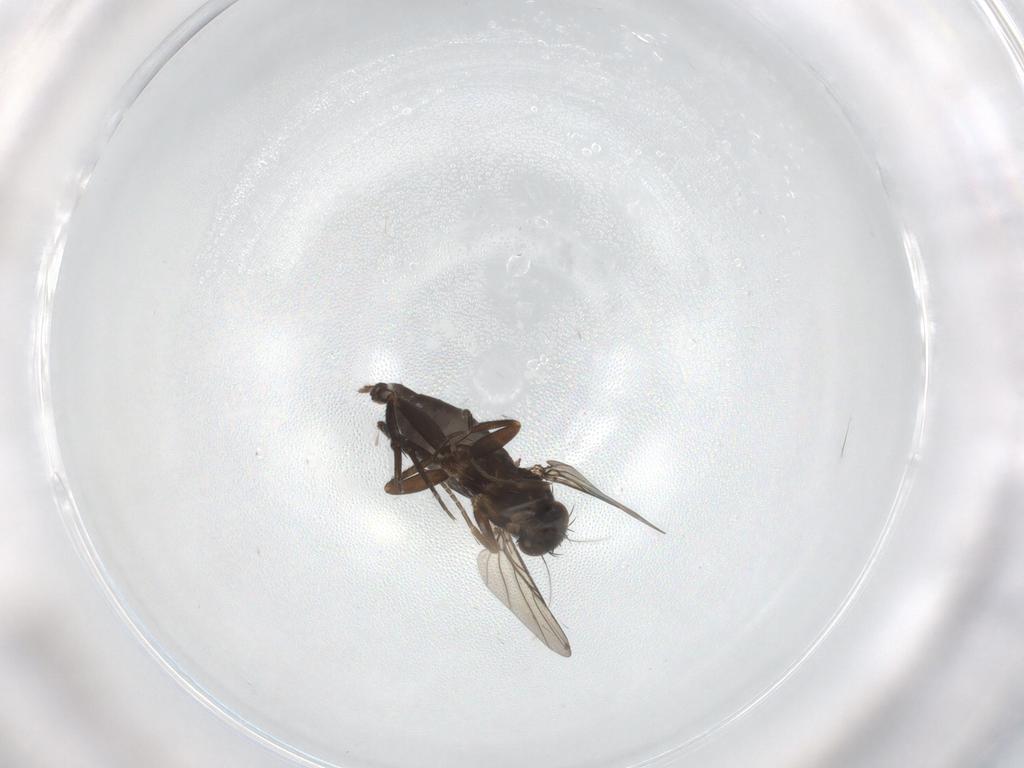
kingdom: Animalia
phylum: Arthropoda
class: Insecta
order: Diptera
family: Phoridae
